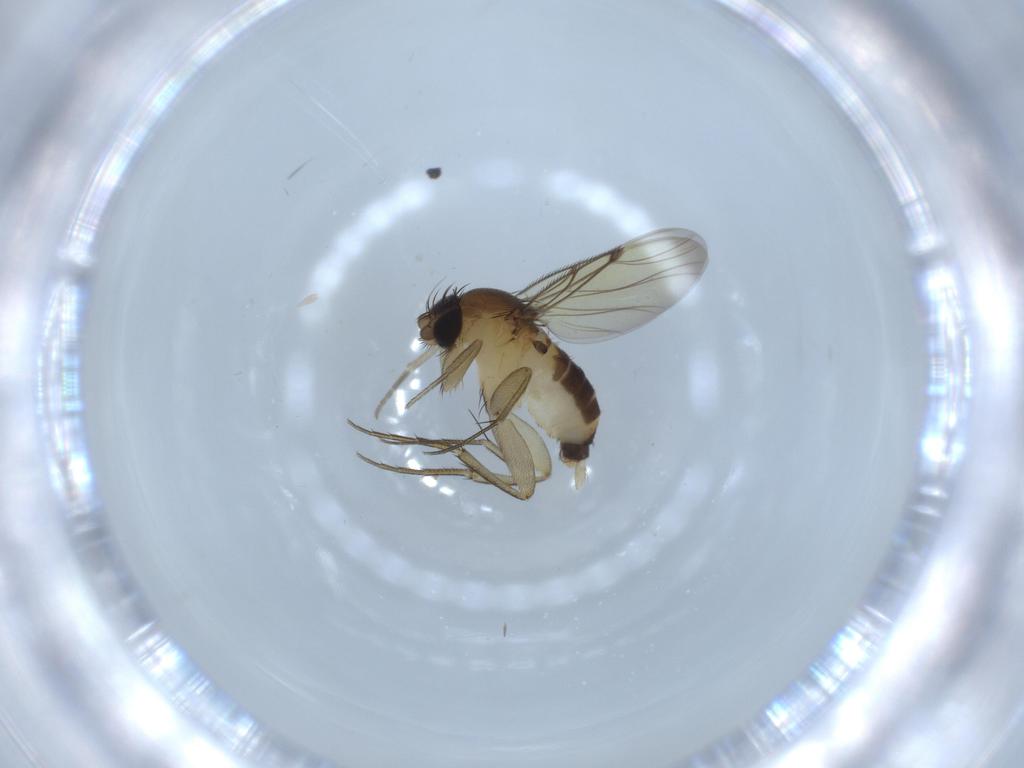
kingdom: Animalia
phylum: Arthropoda
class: Insecta
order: Diptera
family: Phoridae
